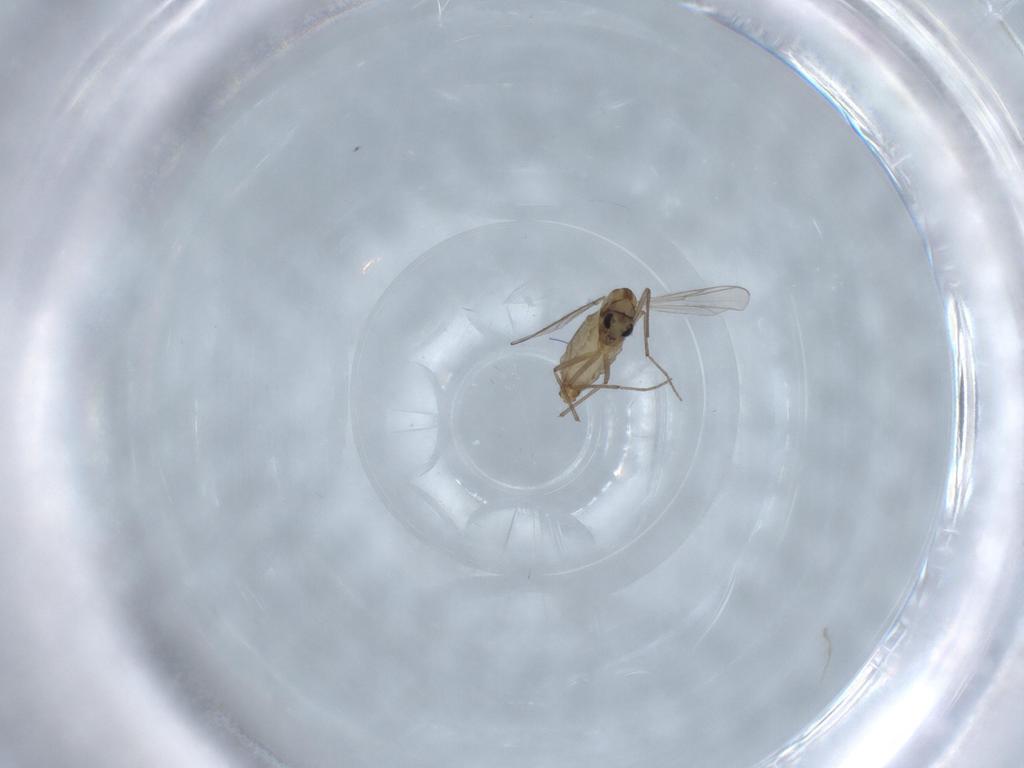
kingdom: Animalia
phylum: Arthropoda
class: Insecta
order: Diptera
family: Chironomidae
